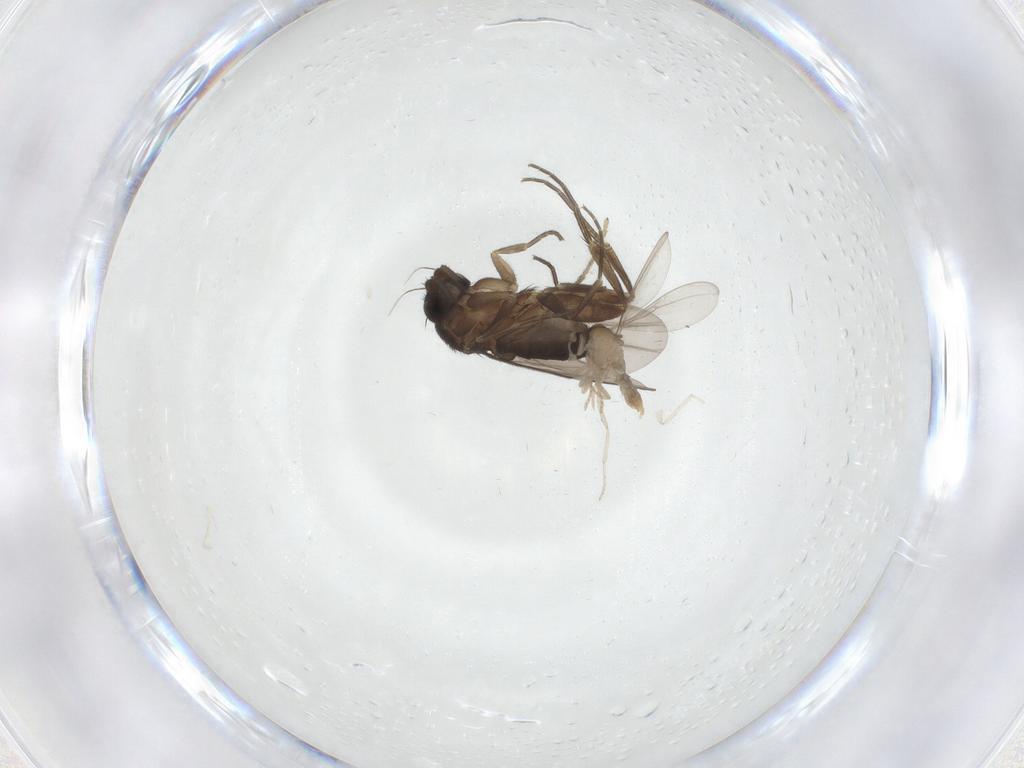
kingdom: Animalia
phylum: Arthropoda
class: Insecta
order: Diptera
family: Phoridae
